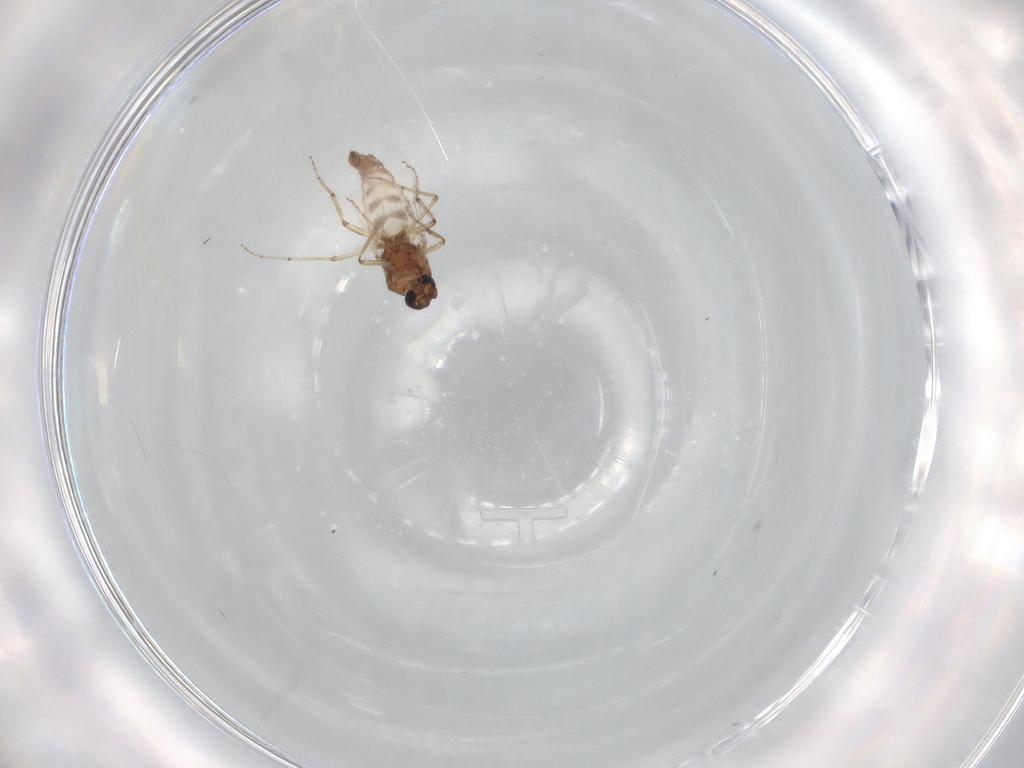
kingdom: Animalia
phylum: Arthropoda
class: Insecta
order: Diptera
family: Ceratopogonidae
